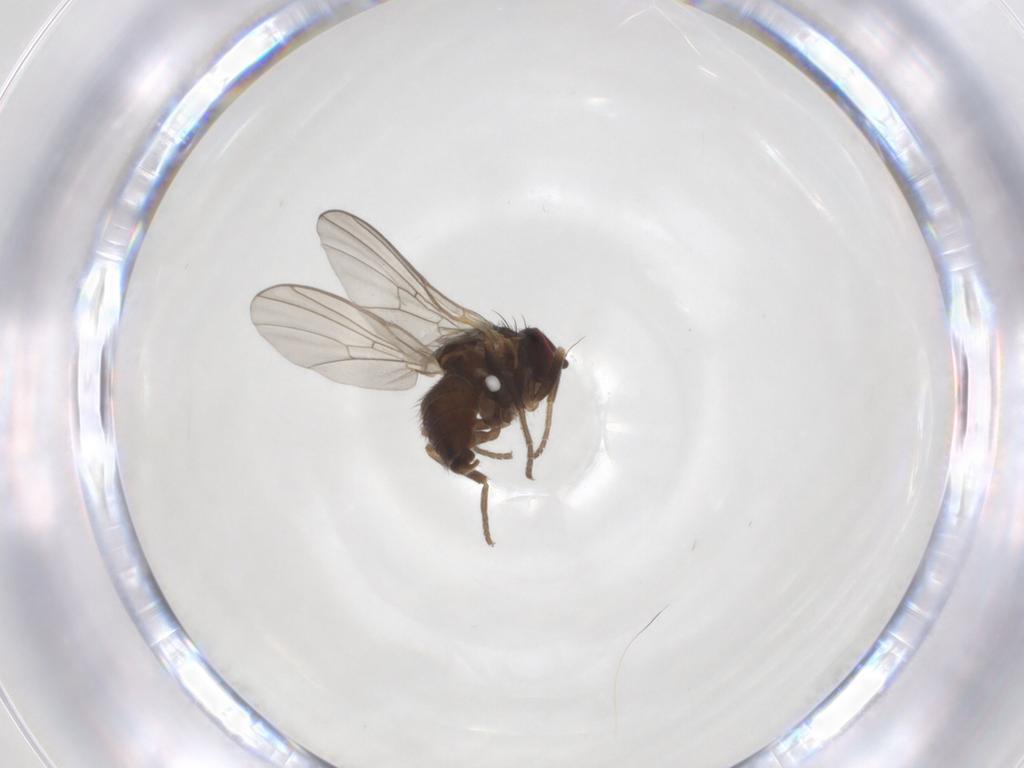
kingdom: Animalia
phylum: Arthropoda
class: Insecta
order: Diptera
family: Agromyzidae
